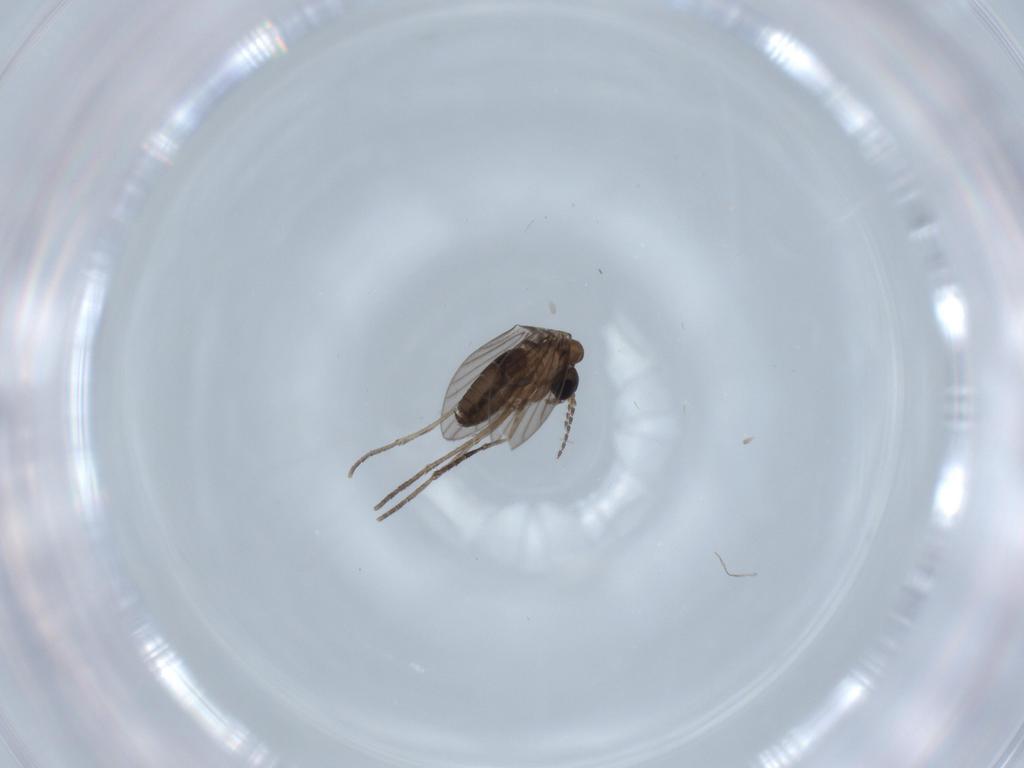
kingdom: Animalia
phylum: Arthropoda
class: Insecta
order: Diptera
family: Psychodidae
